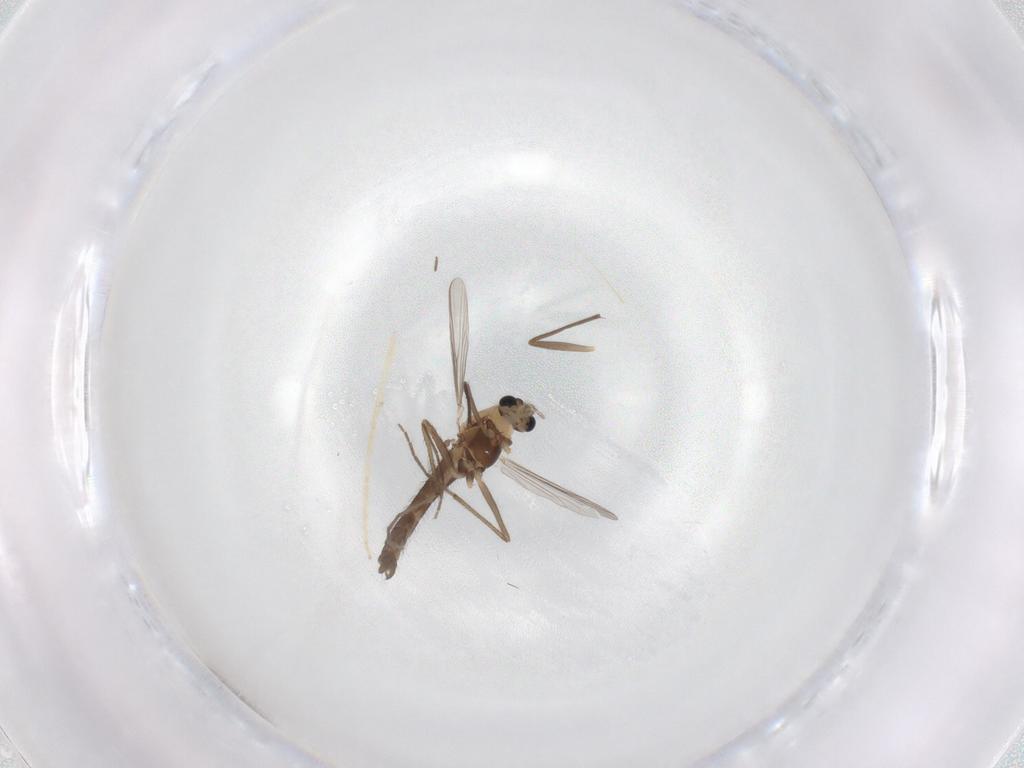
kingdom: Animalia
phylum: Arthropoda
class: Insecta
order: Diptera
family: Chironomidae
